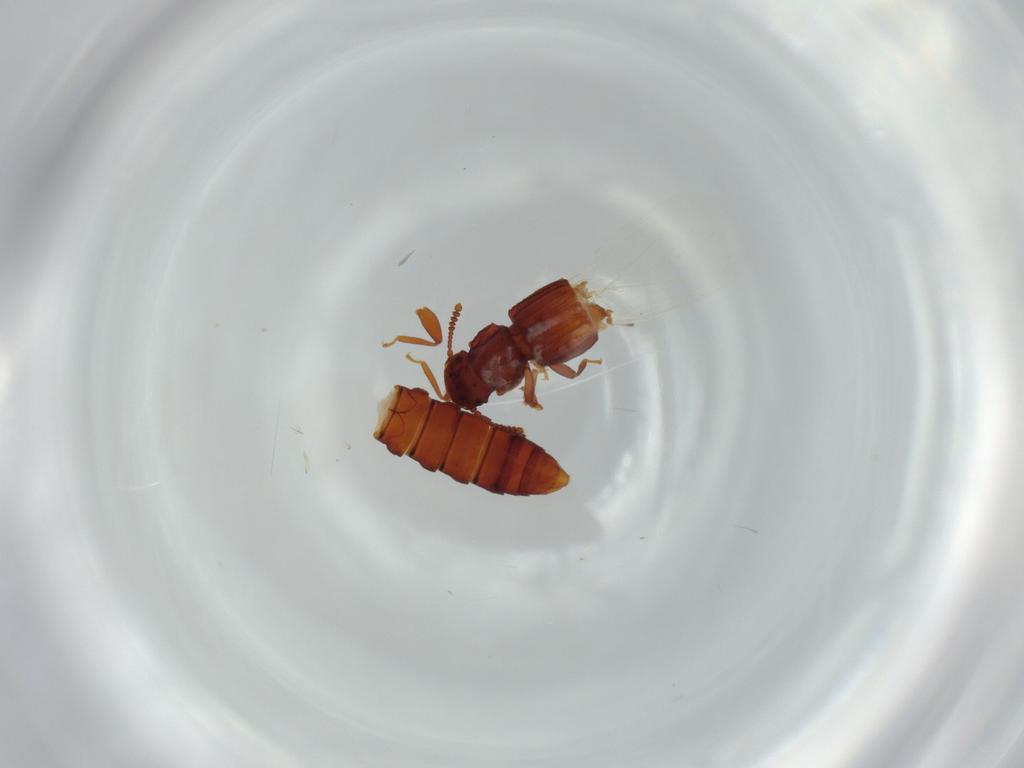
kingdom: Animalia
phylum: Arthropoda
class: Insecta
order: Coleoptera
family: Staphylinidae
